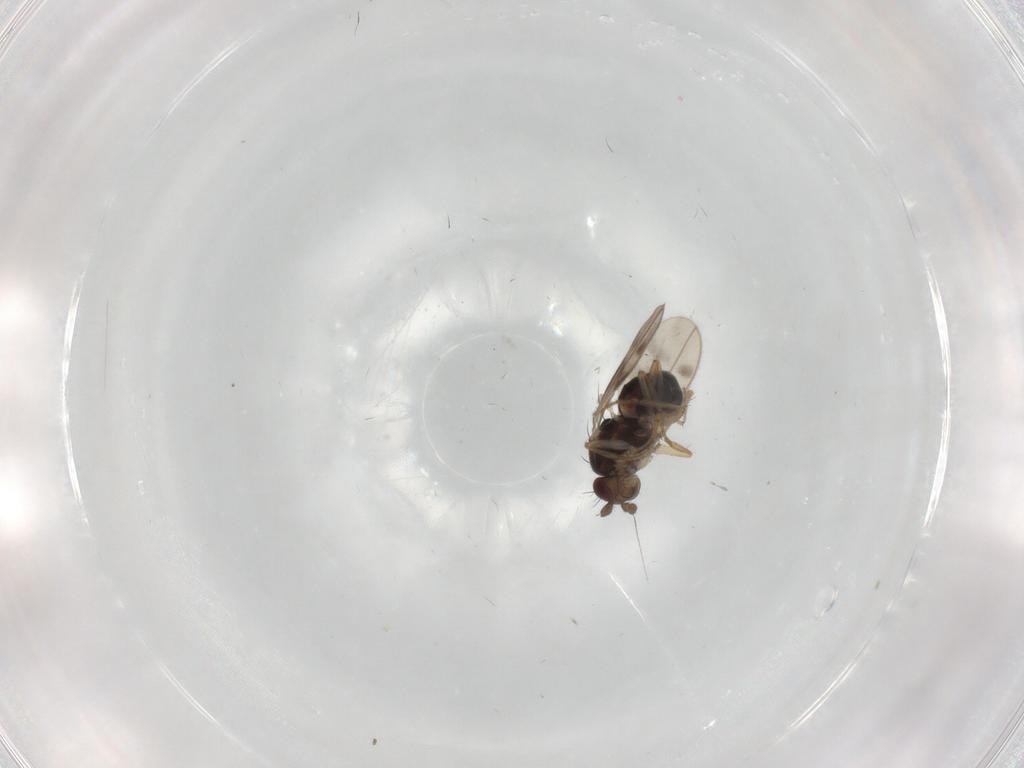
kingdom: Animalia
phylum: Arthropoda
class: Insecta
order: Diptera
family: Sphaeroceridae
